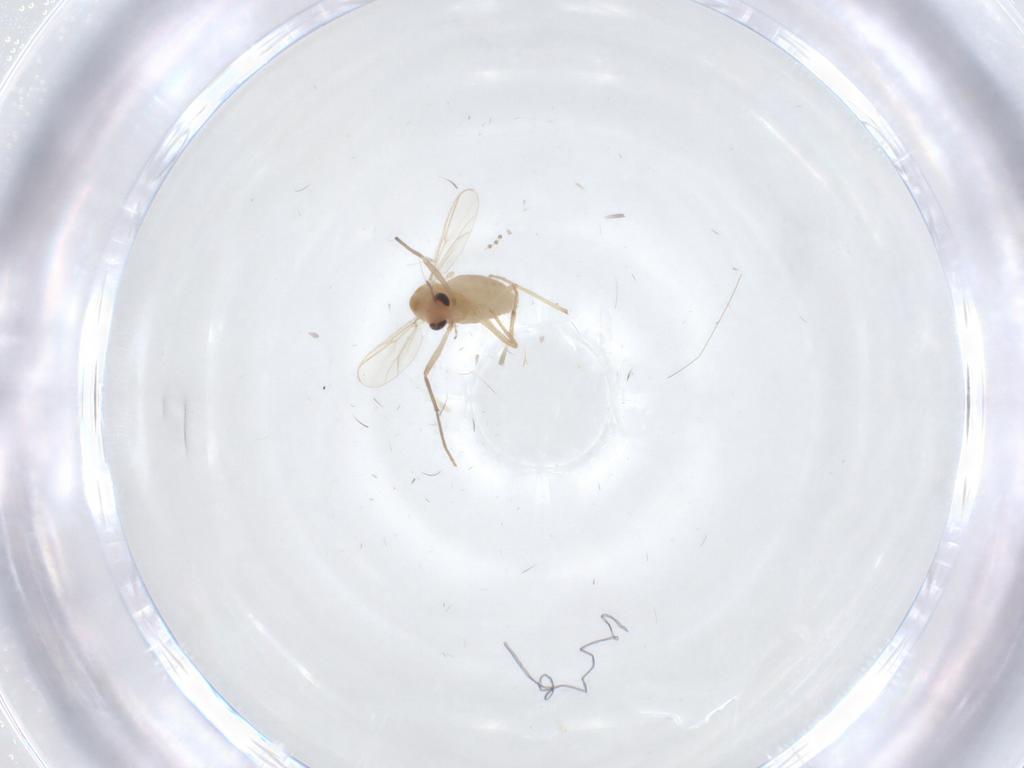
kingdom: Animalia
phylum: Arthropoda
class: Insecta
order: Diptera
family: Chironomidae
